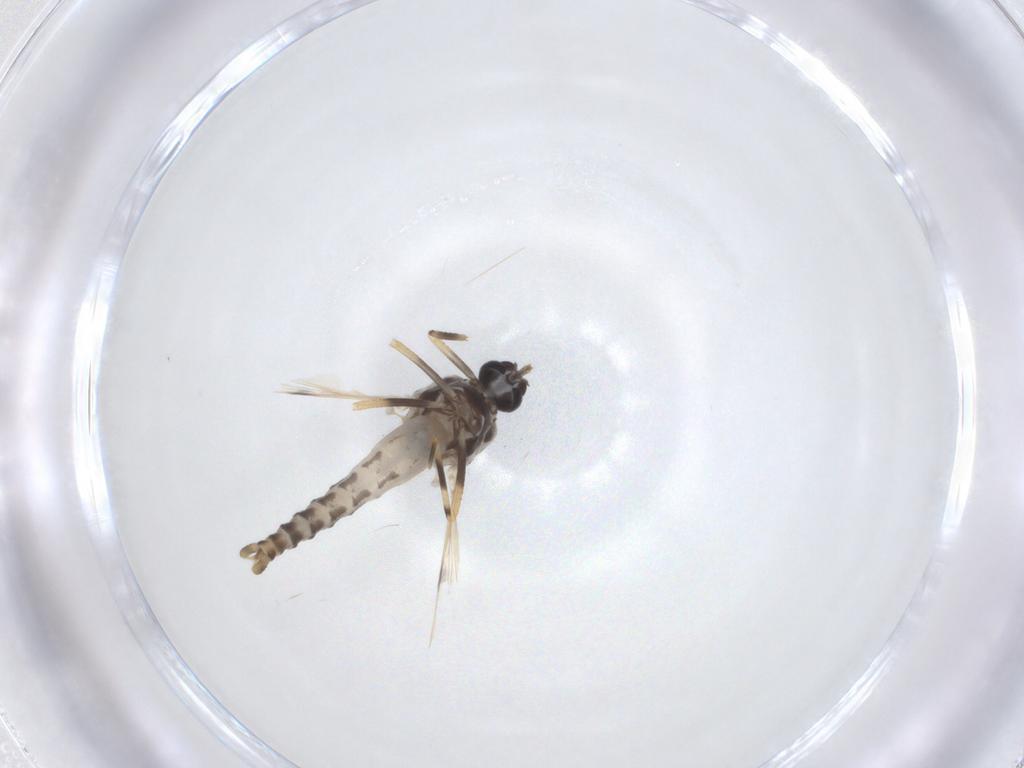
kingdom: Animalia
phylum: Arthropoda
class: Insecta
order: Diptera
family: Ceratopogonidae
